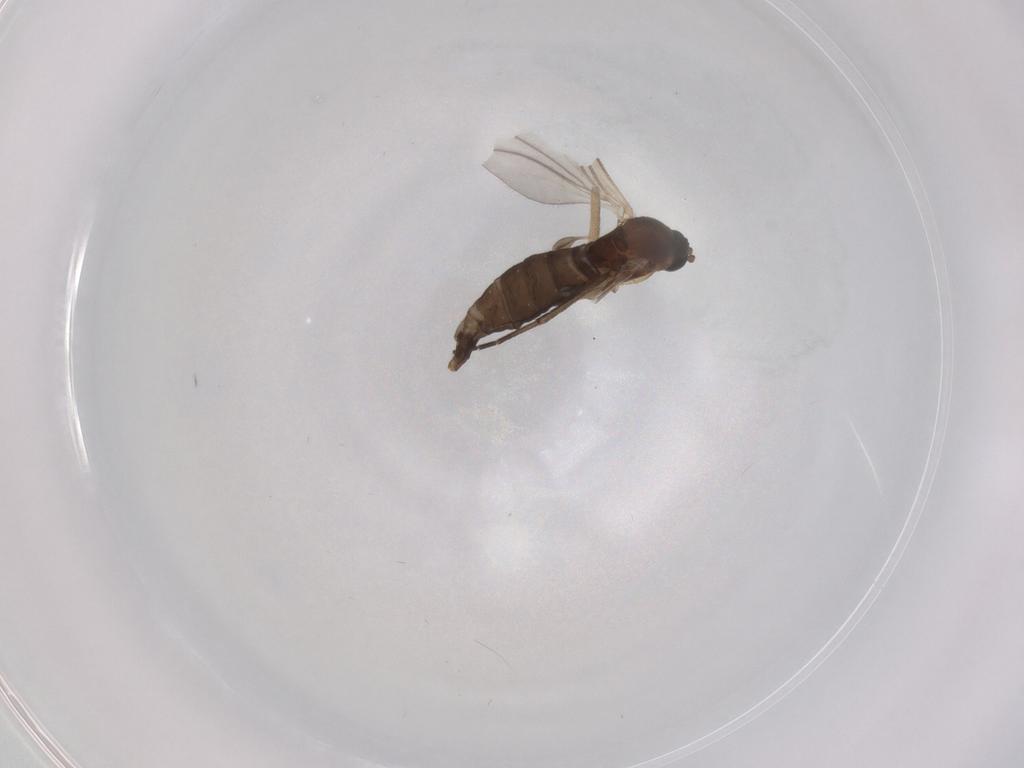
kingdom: Animalia
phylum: Arthropoda
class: Insecta
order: Diptera
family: Sciaridae
